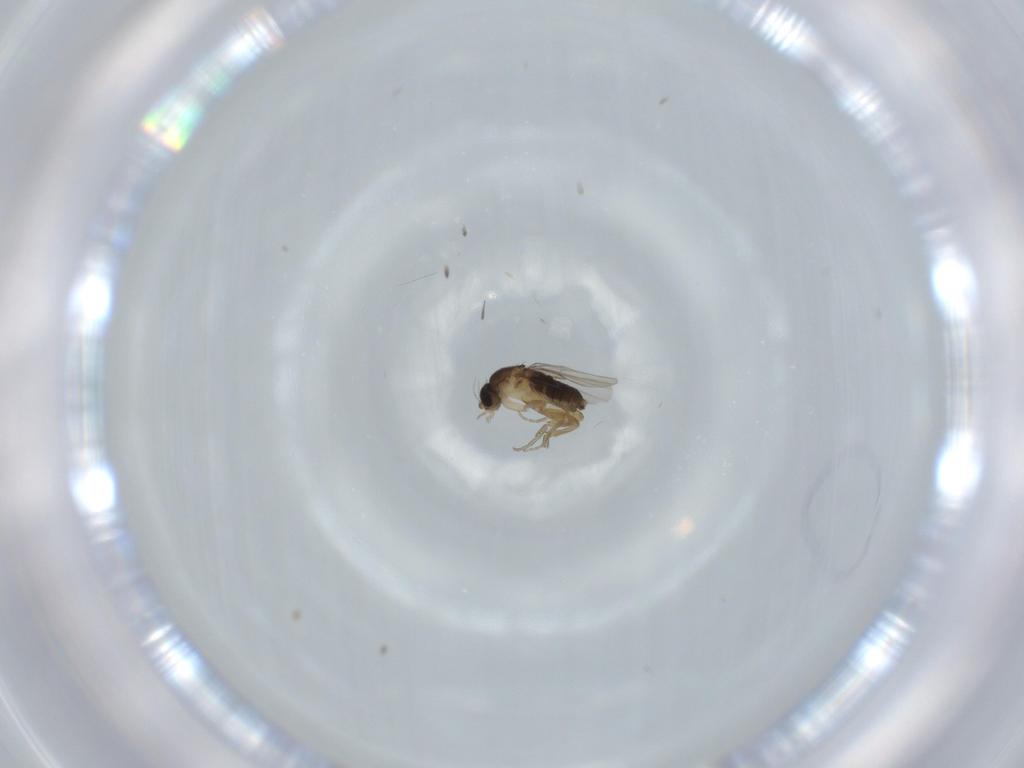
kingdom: Animalia
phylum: Arthropoda
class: Insecta
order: Diptera
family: Phoridae
